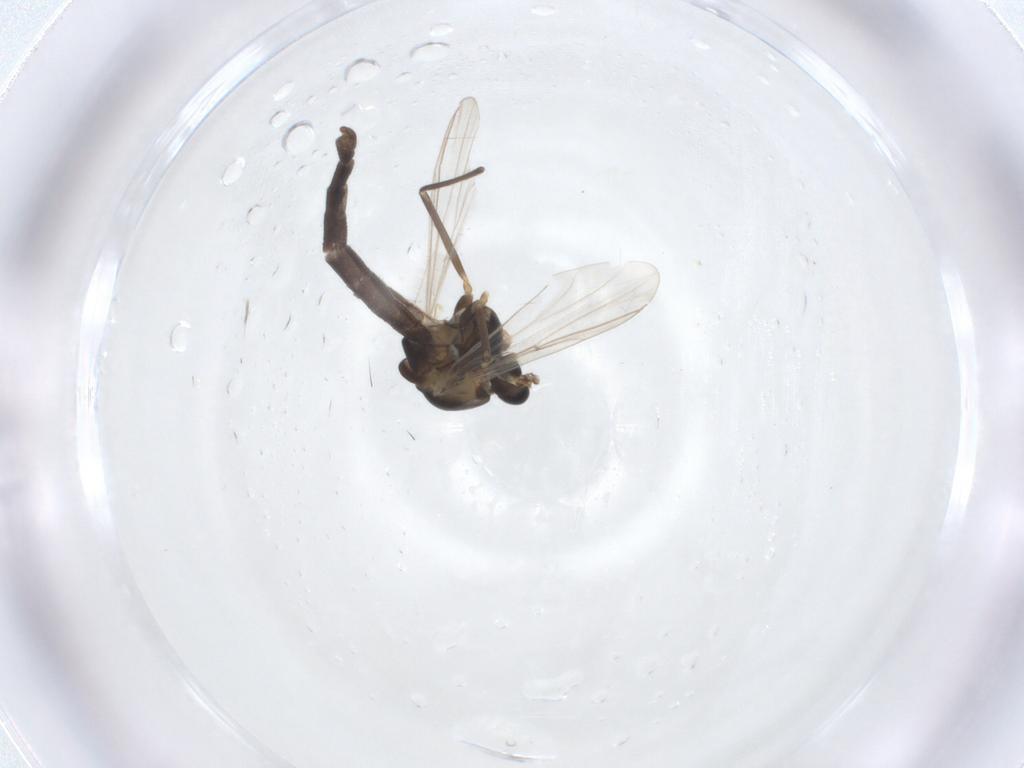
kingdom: Animalia
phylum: Arthropoda
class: Insecta
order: Diptera
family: Chironomidae
